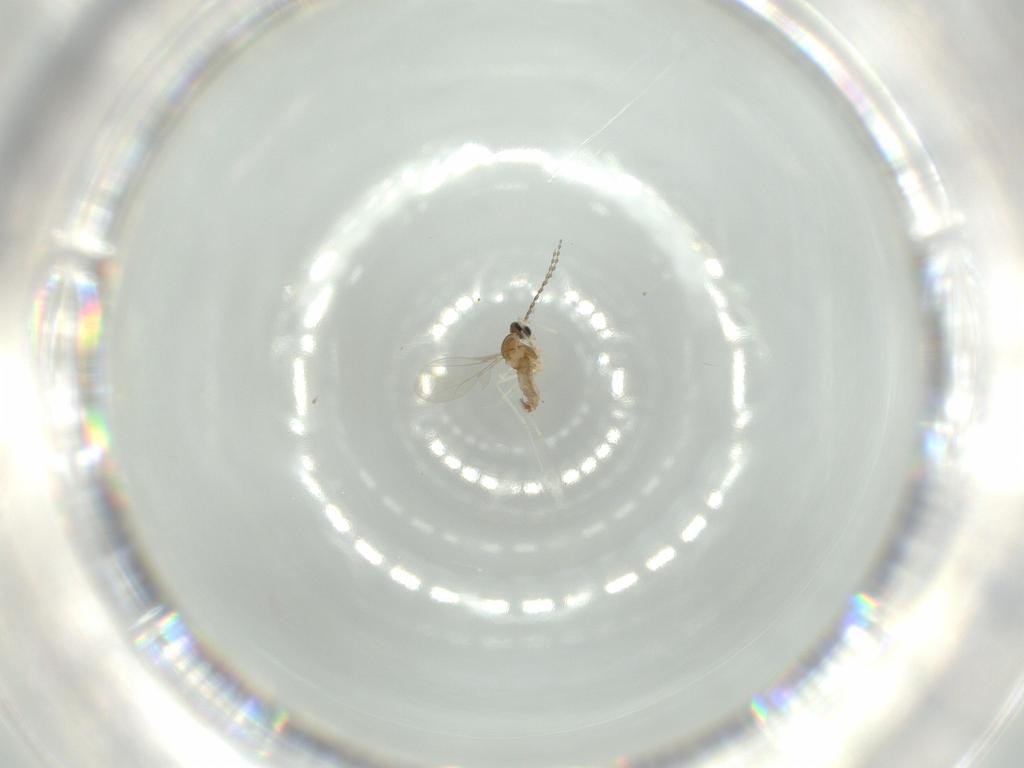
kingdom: Animalia
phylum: Arthropoda
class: Insecta
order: Diptera
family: Cecidomyiidae
